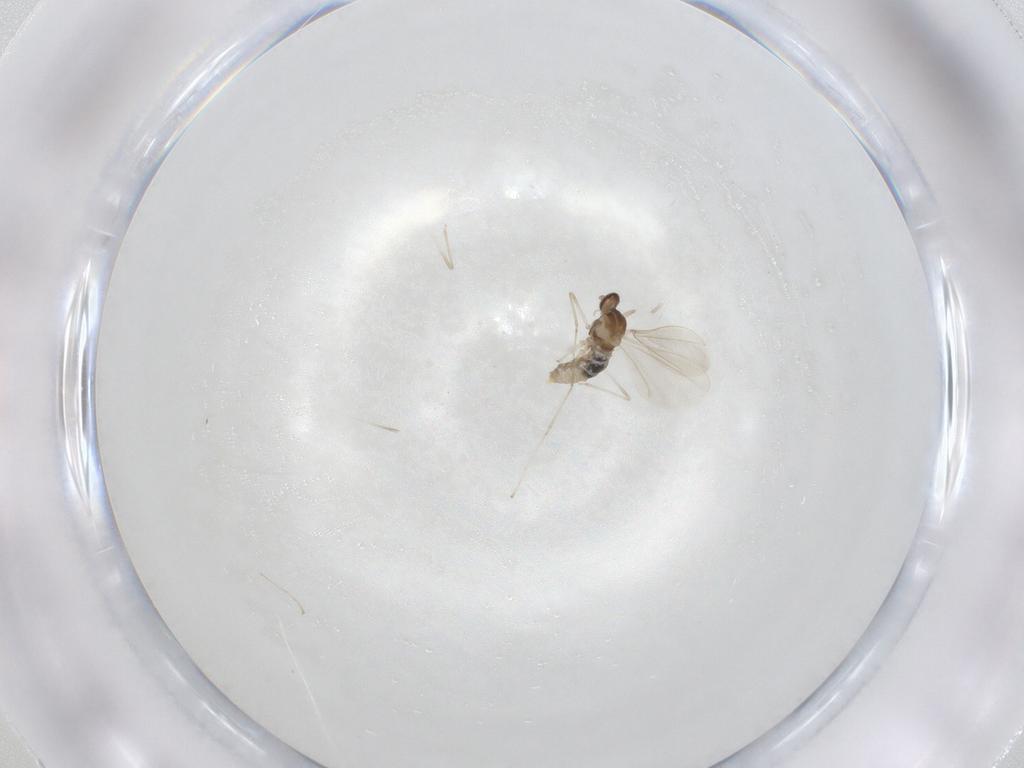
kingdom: Animalia
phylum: Arthropoda
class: Insecta
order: Diptera
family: Cecidomyiidae
